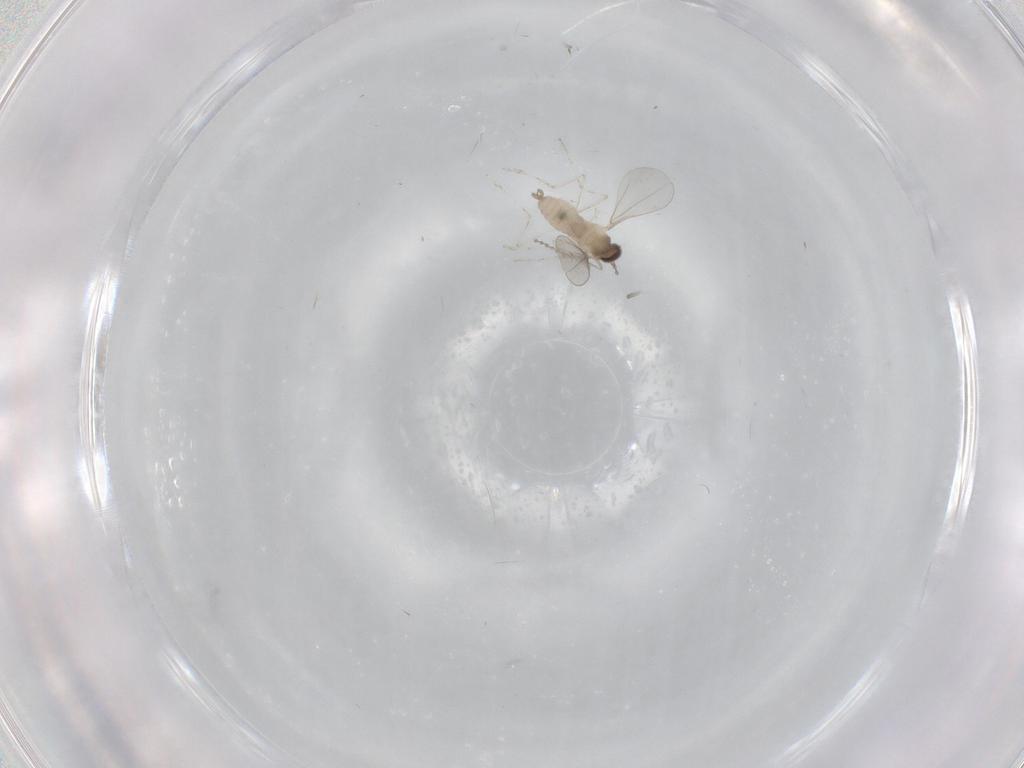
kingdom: Animalia
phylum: Arthropoda
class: Insecta
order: Diptera
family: Cecidomyiidae
